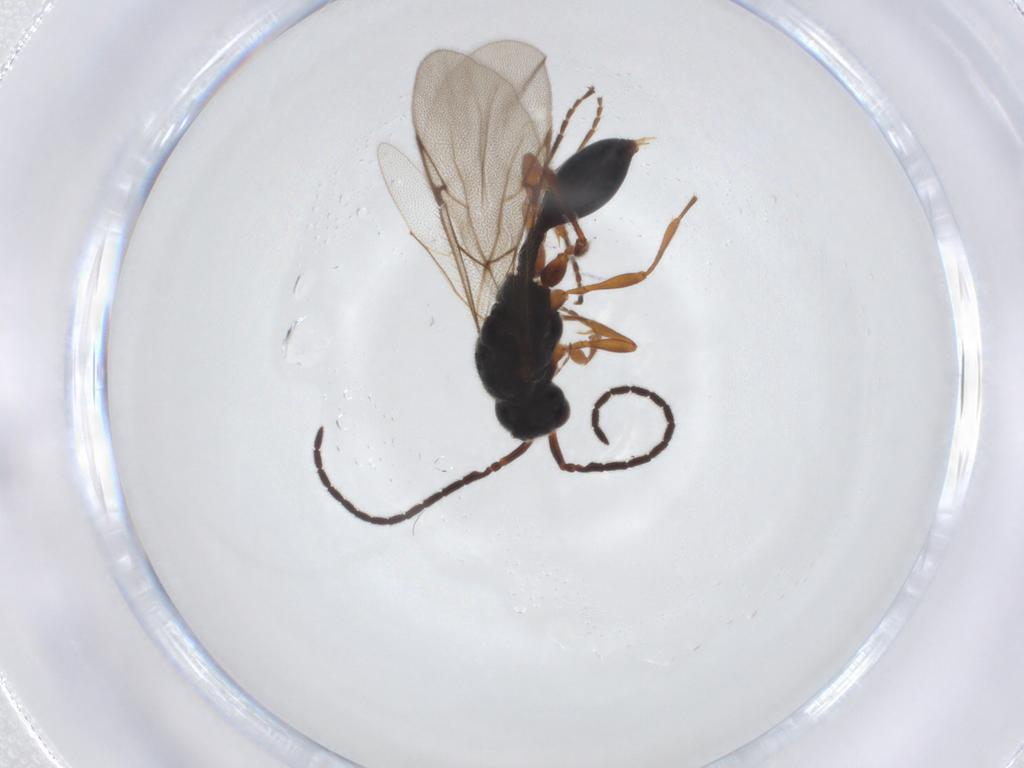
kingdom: Animalia
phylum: Arthropoda
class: Insecta
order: Hymenoptera
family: Diapriidae
